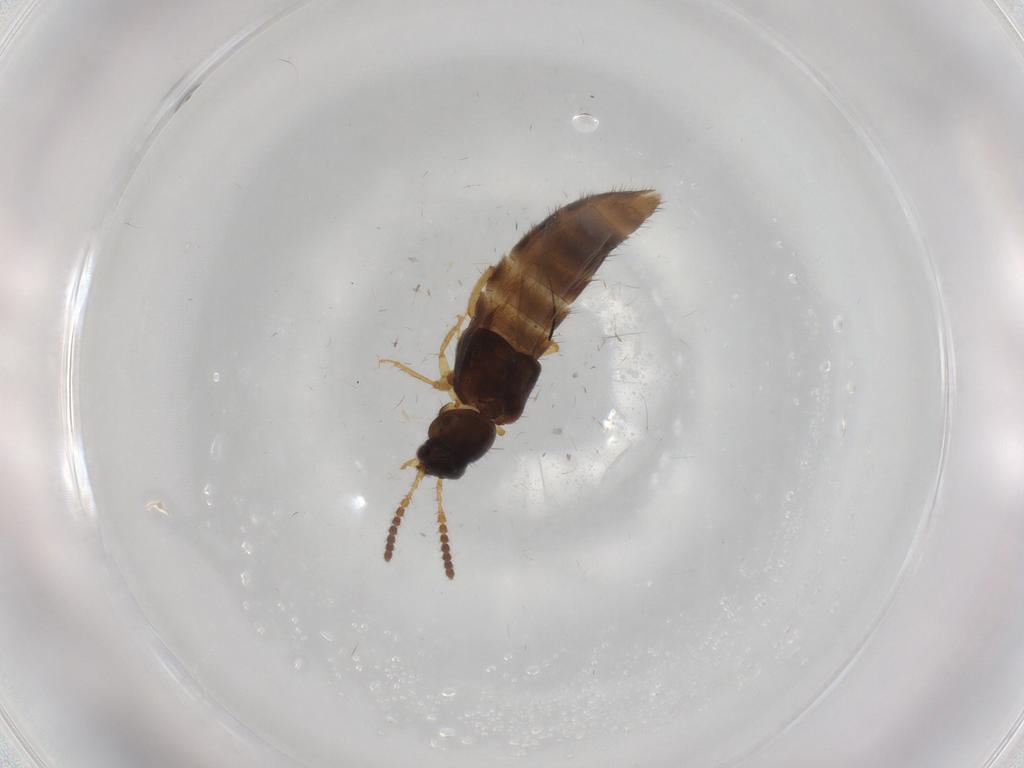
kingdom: Animalia
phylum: Arthropoda
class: Insecta
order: Coleoptera
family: Staphylinidae
